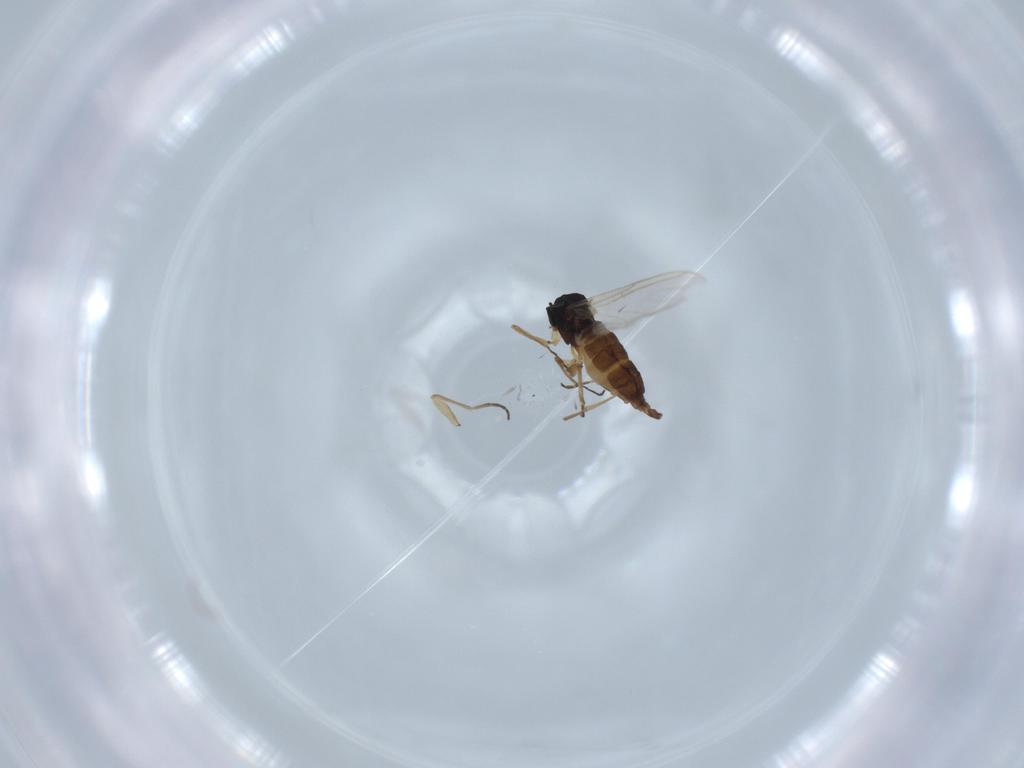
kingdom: Animalia
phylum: Arthropoda
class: Insecta
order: Diptera
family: Sciaridae
